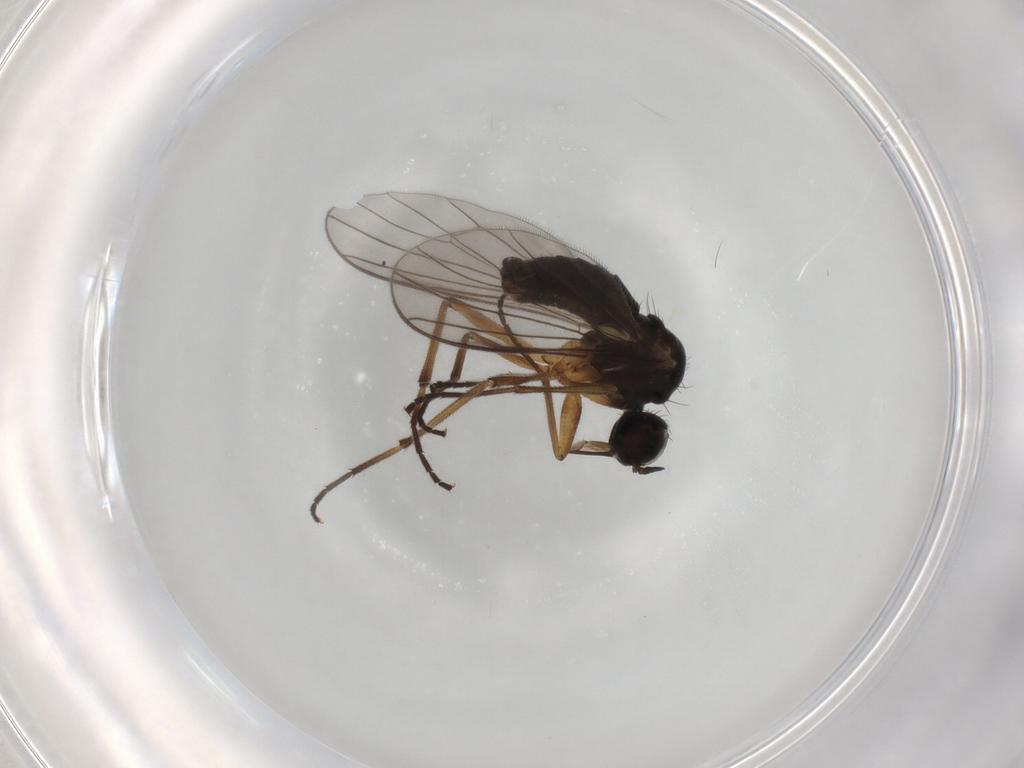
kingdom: Animalia
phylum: Arthropoda
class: Insecta
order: Diptera
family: Empididae
